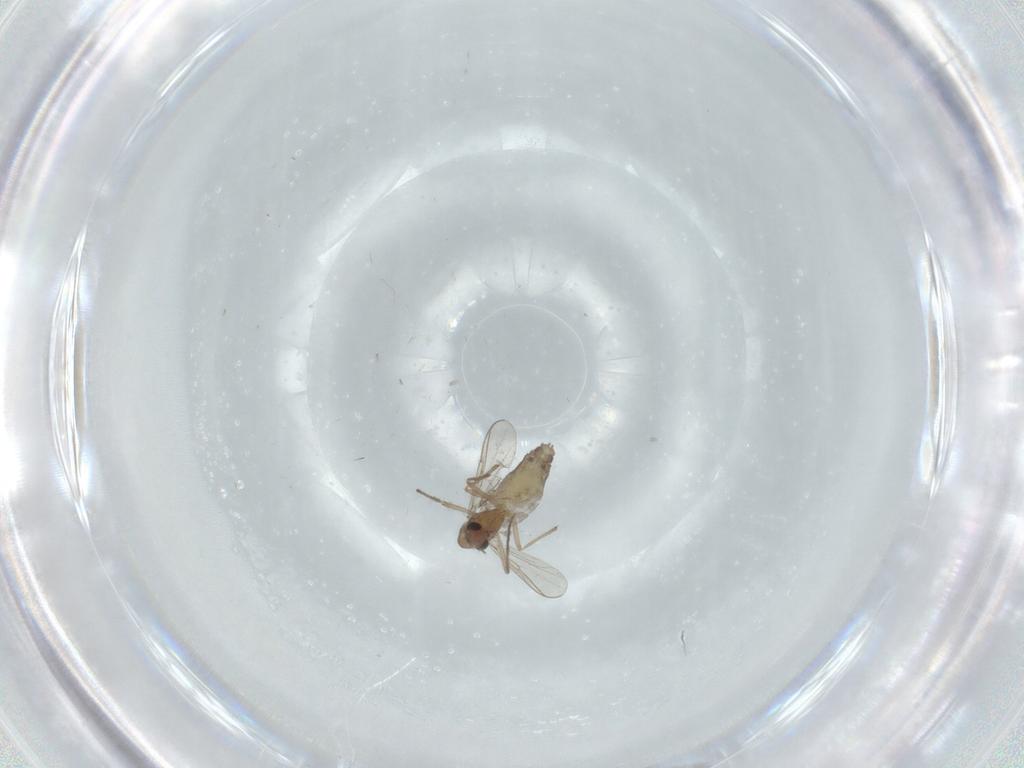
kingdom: Animalia
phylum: Arthropoda
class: Insecta
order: Diptera
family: Chironomidae
